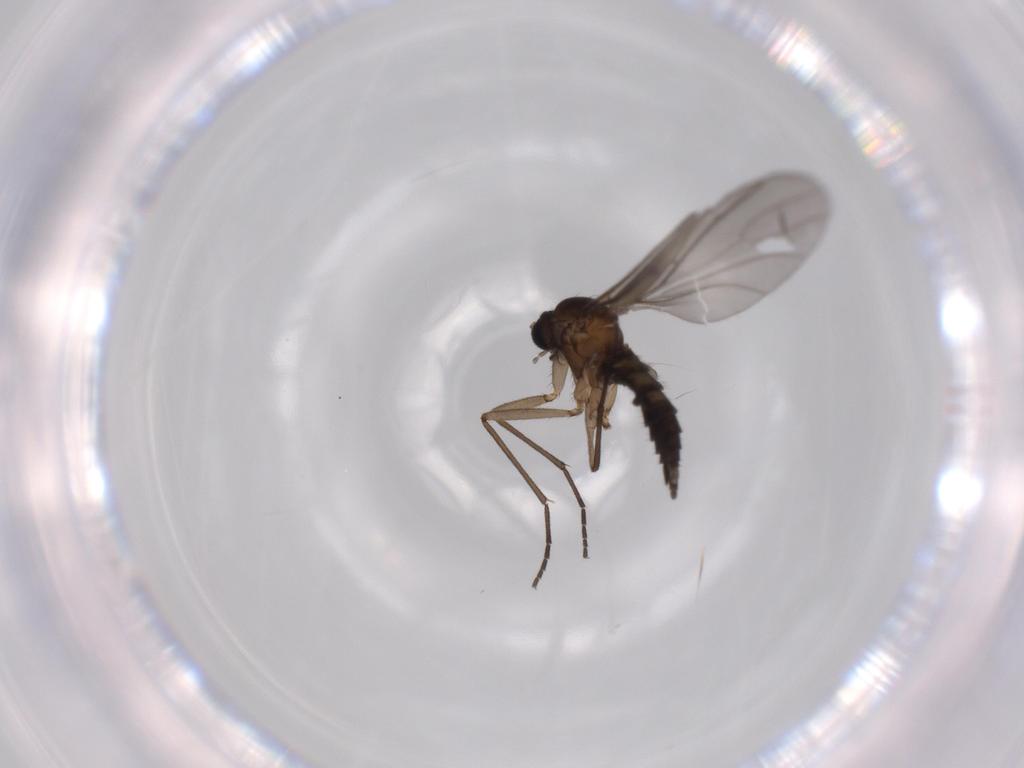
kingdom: Animalia
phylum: Arthropoda
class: Insecta
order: Diptera
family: Sciaridae
